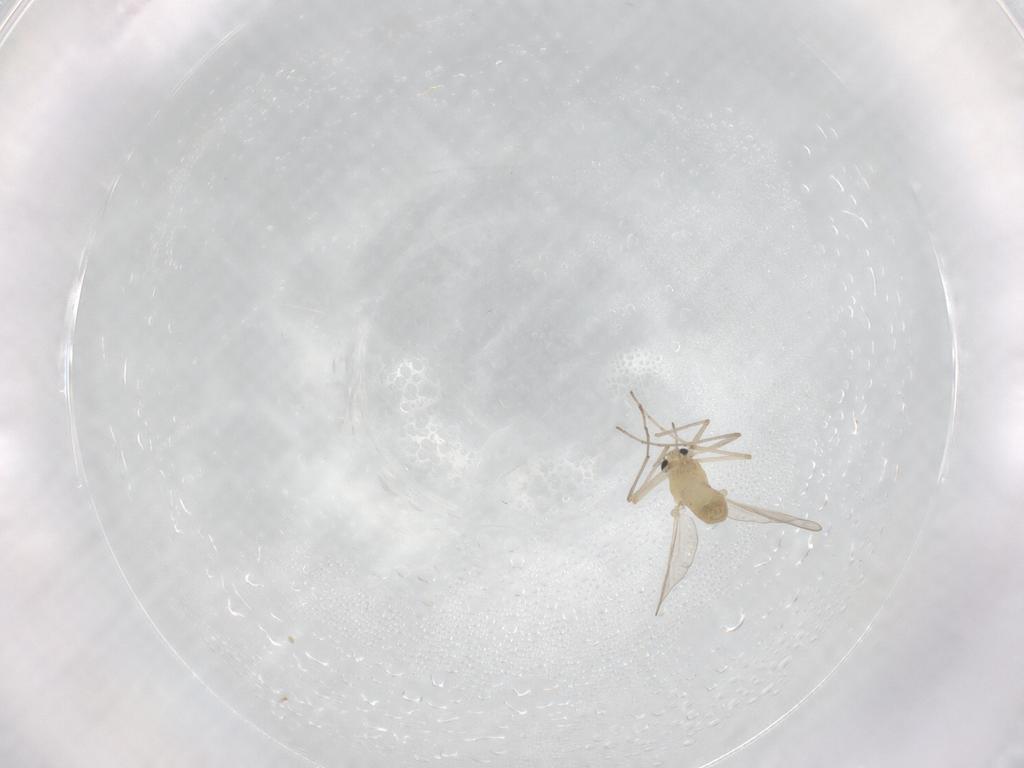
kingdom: Animalia
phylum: Arthropoda
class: Insecta
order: Diptera
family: Chironomidae
